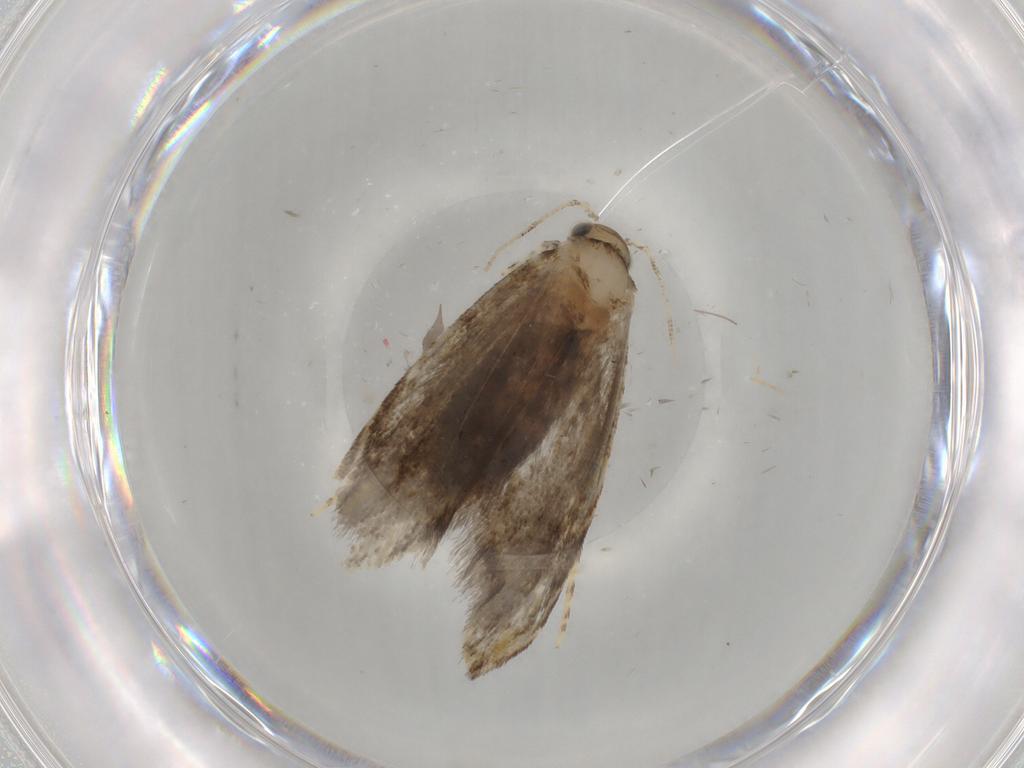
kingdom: Animalia
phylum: Arthropoda
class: Insecta
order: Lepidoptera
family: Tineidae
